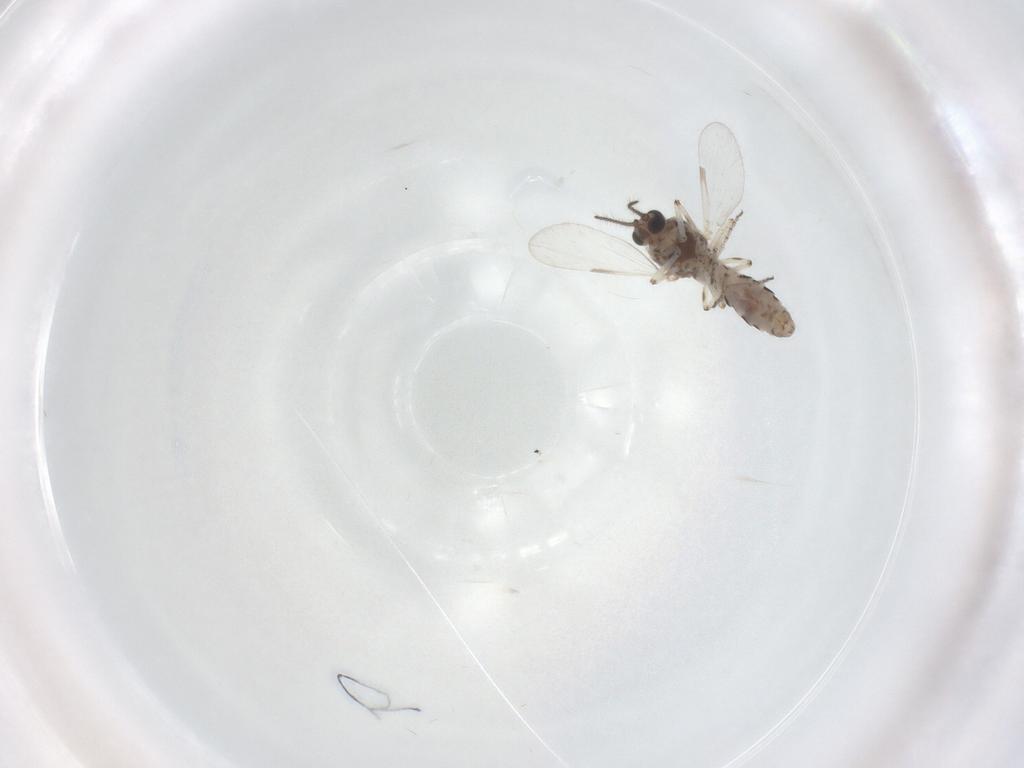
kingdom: Animalia
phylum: Arthropoda
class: Insecta
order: Diptera
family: Ceratopogonidae
